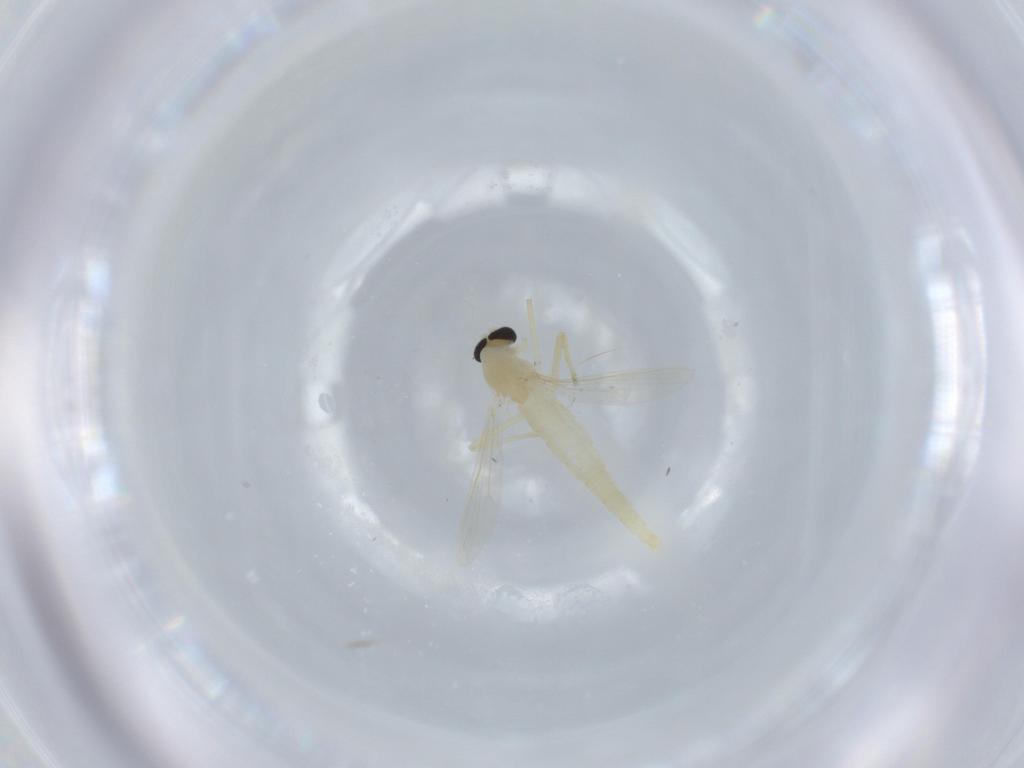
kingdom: Animalia
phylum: Arthropoda
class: Insecta
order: Diptera
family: Chironomidae
